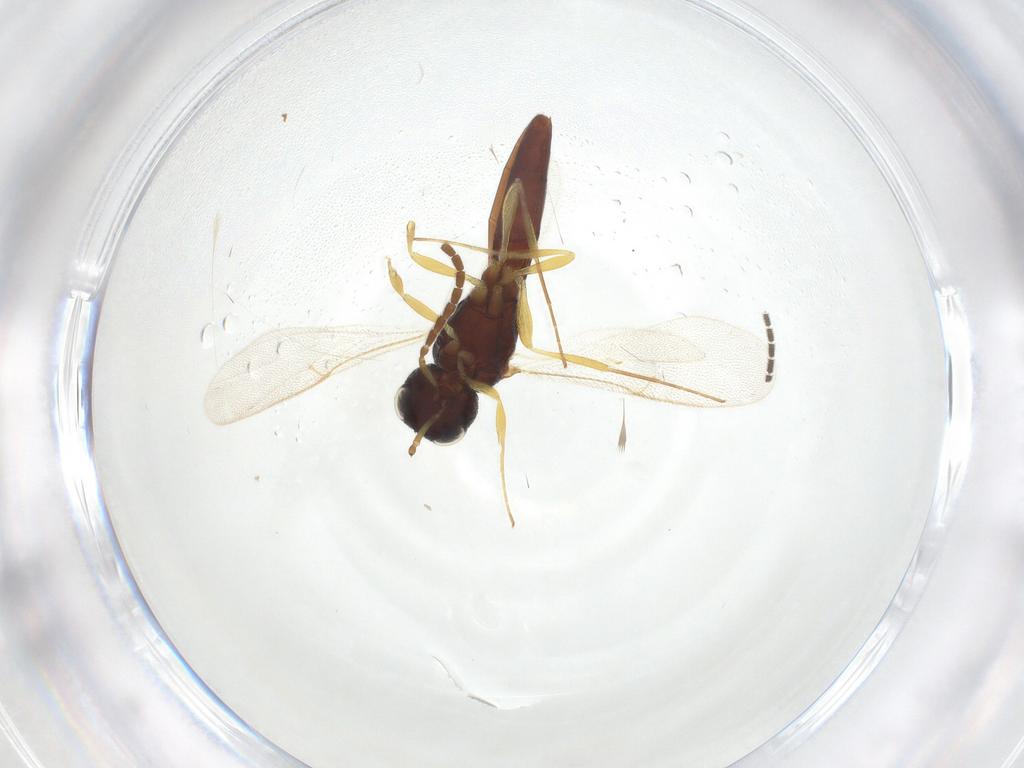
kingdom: Animalia
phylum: Arthropoda
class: Insecta
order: Diptera
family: Sciaridae
